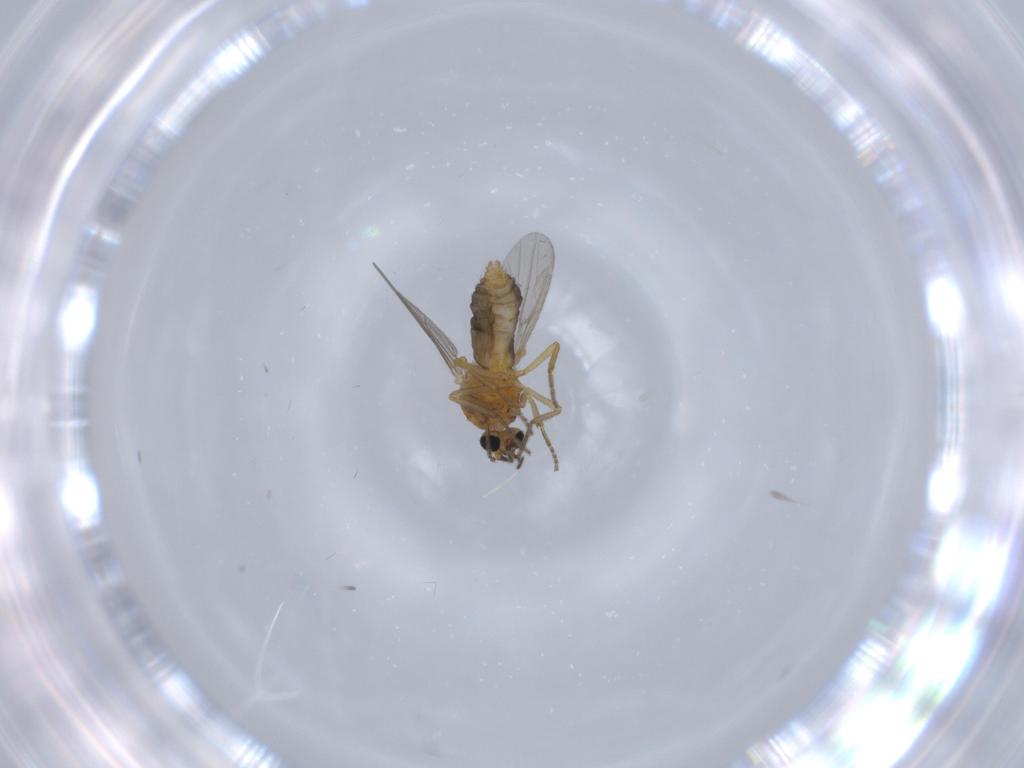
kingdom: Animalia
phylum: Arthropoda
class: Insecta
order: Diptera
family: Ceratopogonidae
